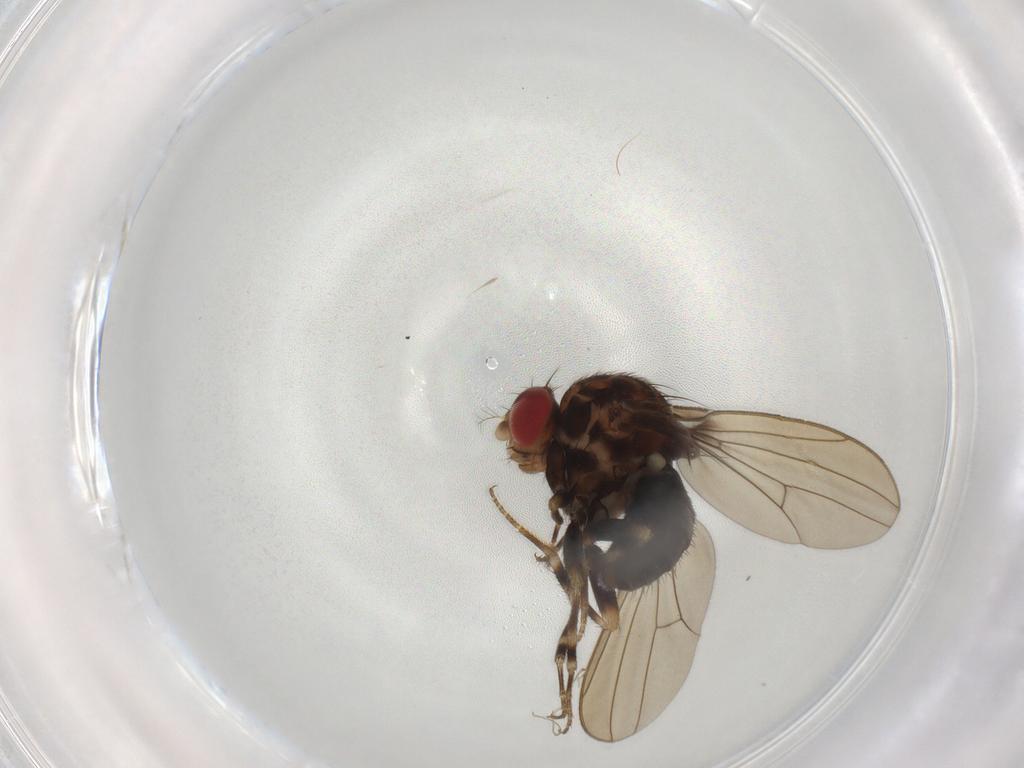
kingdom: Animalia
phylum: Arthropoda
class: Insecta
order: Diptera
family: Drosophilidae
